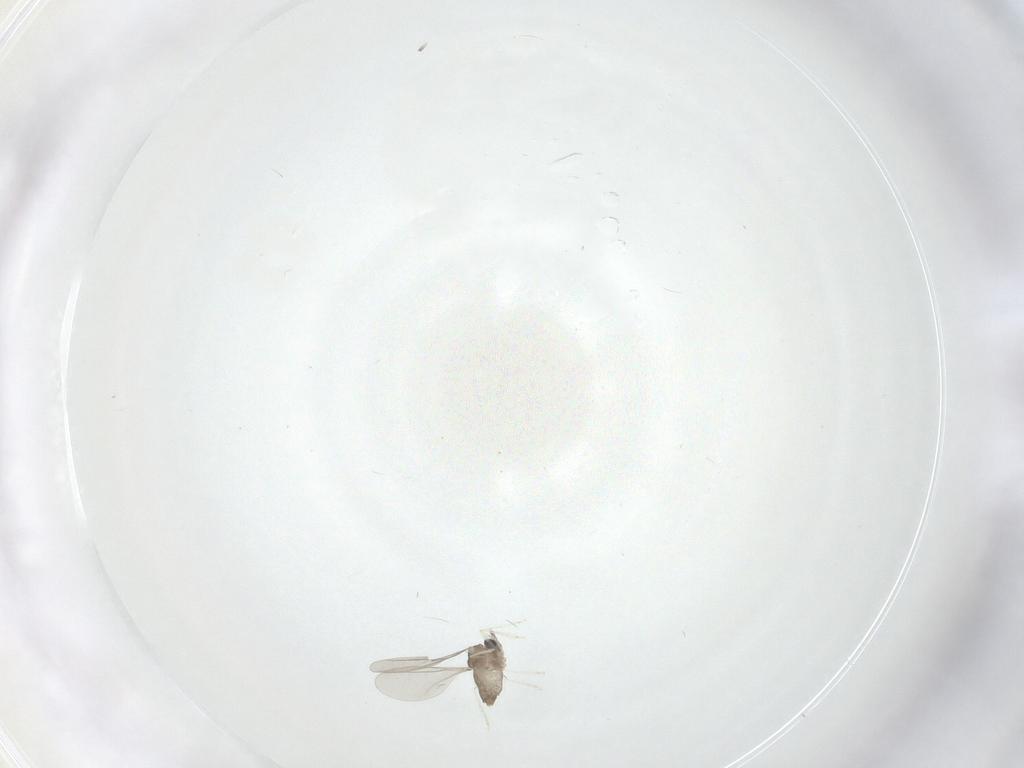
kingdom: Animalia
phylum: Arthropoda
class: Insecta
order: Diptera
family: Cecidomyiidae
